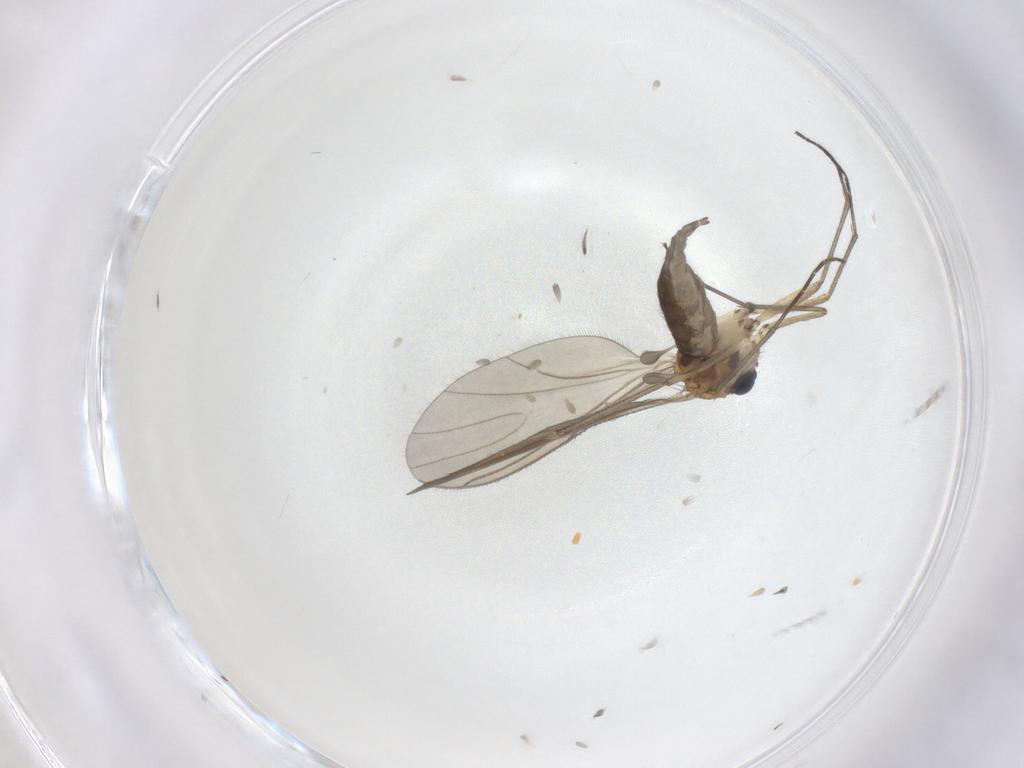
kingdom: Animalia
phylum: Arthropoda
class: Insecta
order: Diptera
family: Sciaridae
